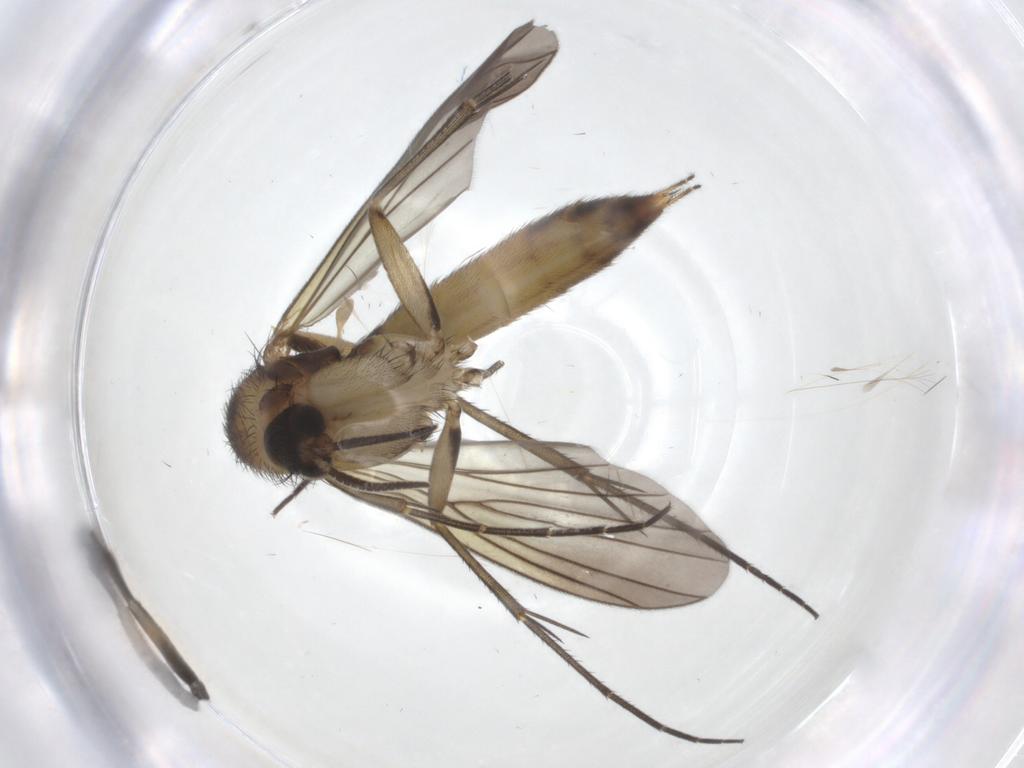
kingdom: Animalia
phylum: Arthropoda
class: Insecta
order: Diptera
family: Mycetophilidae
